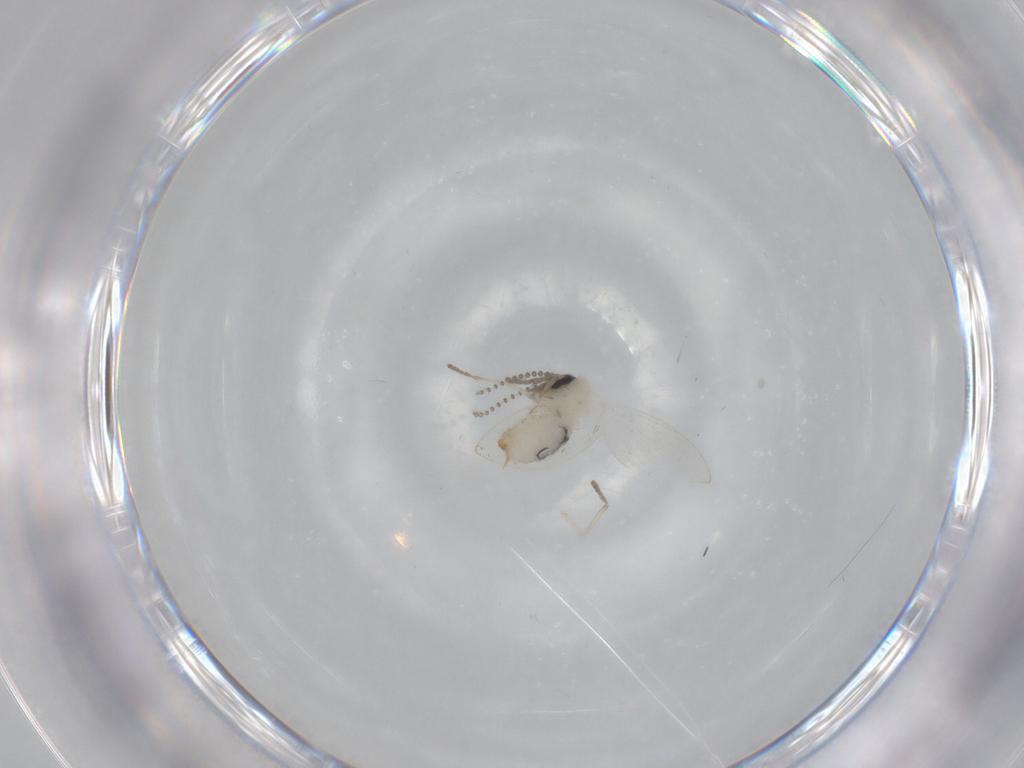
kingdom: Animalia
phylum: Arthropoda
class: Insecta
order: Diptera
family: Psychodidae
